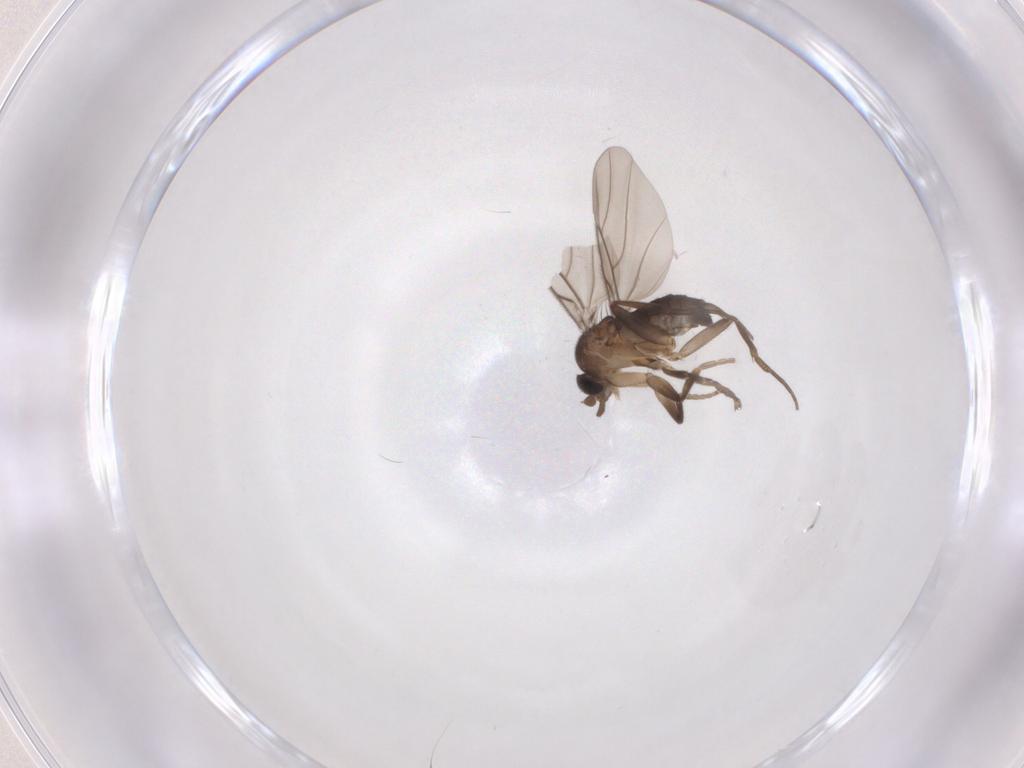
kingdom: Animalia
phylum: Arthropoda
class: Insecta
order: Diptera
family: Phoridae
